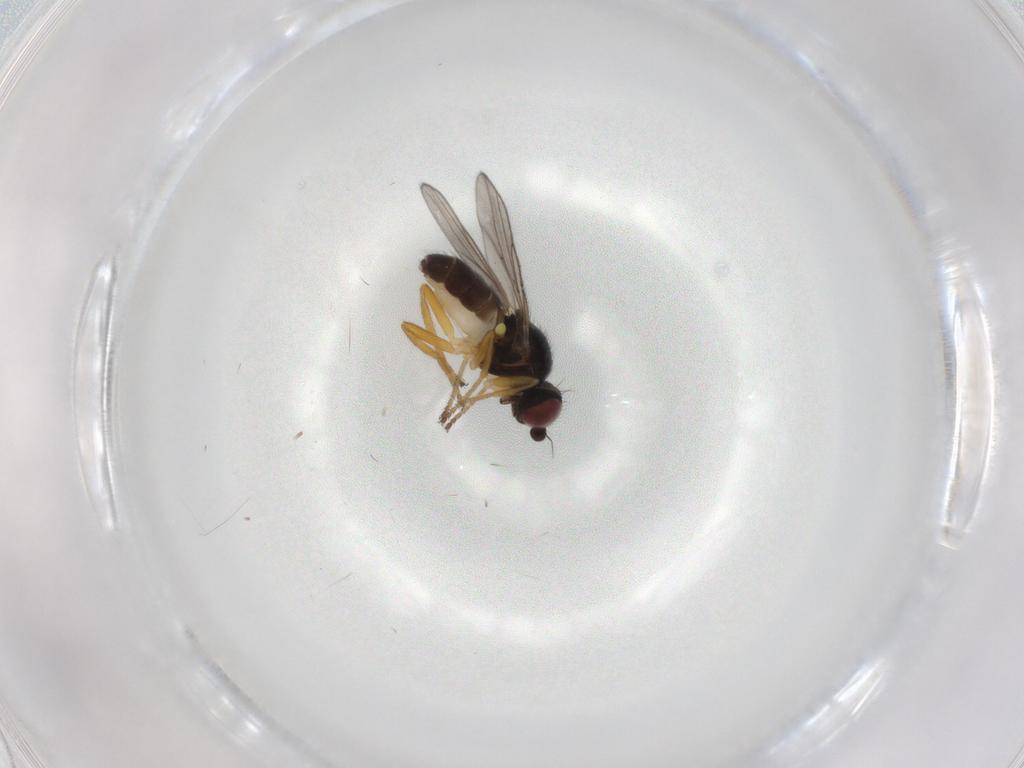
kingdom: Animalia
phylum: Arthropoda
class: Insecta
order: Diptera
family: Chloropidae
